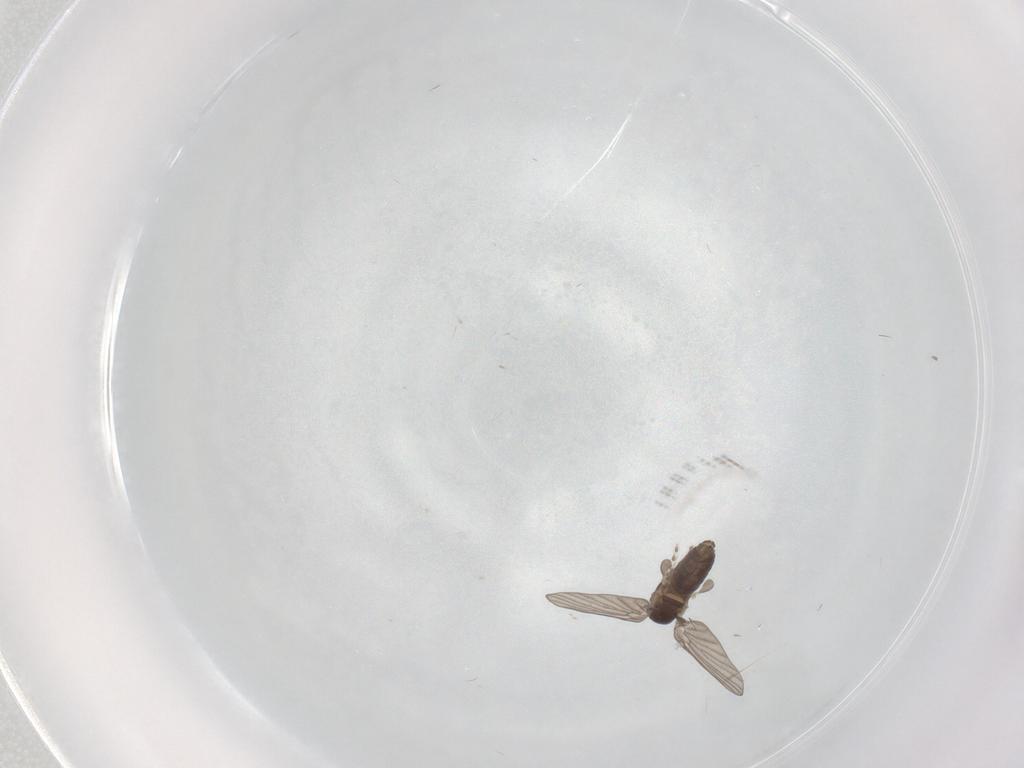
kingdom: Animalia
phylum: Arthropoda
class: Insecta
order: Diptera
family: Cecidomyiidae
